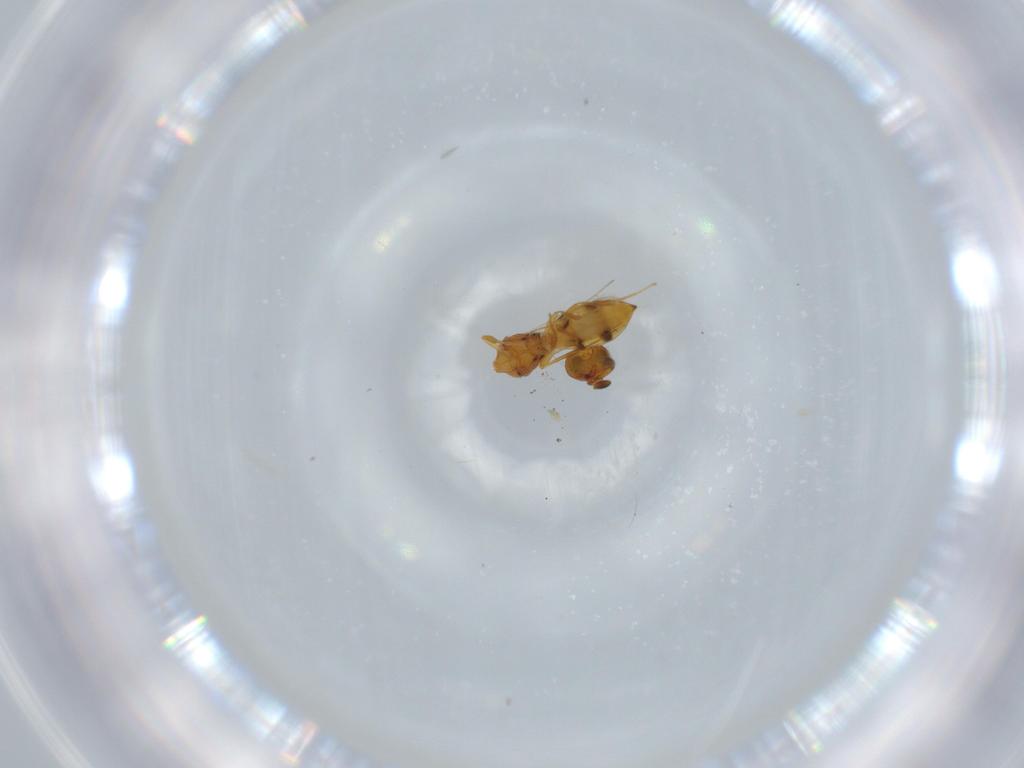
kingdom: Animalia
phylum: Arthropoda
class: Insecta
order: Hymenoptera
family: Scelionidae
